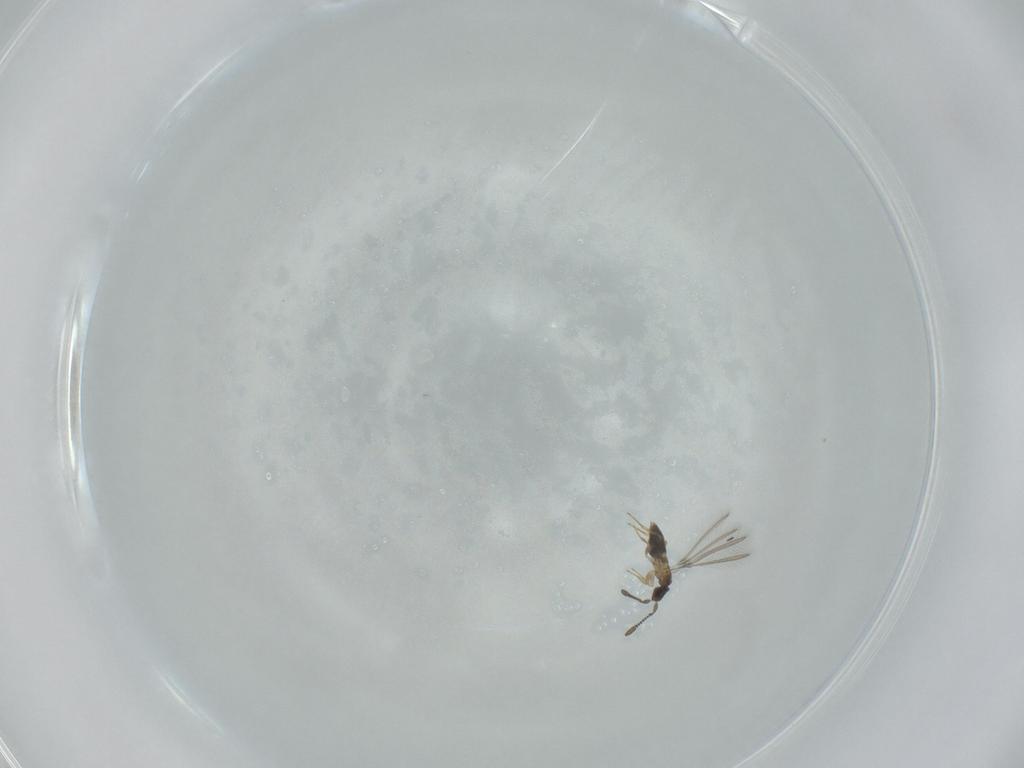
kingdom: Animalia
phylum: Arthropoda
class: Insecta
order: Hymenoptera
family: Mymaridae
